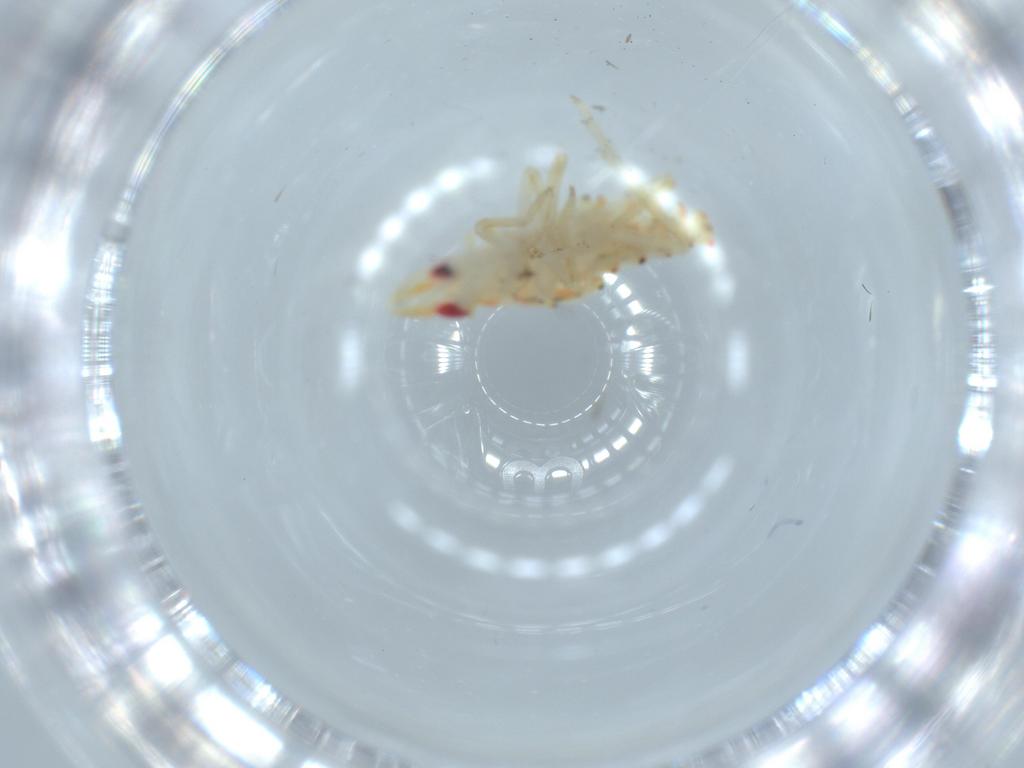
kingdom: Animalia
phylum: Arthropoda
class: Insecta
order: Hemiptera
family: Tropiduchidae
